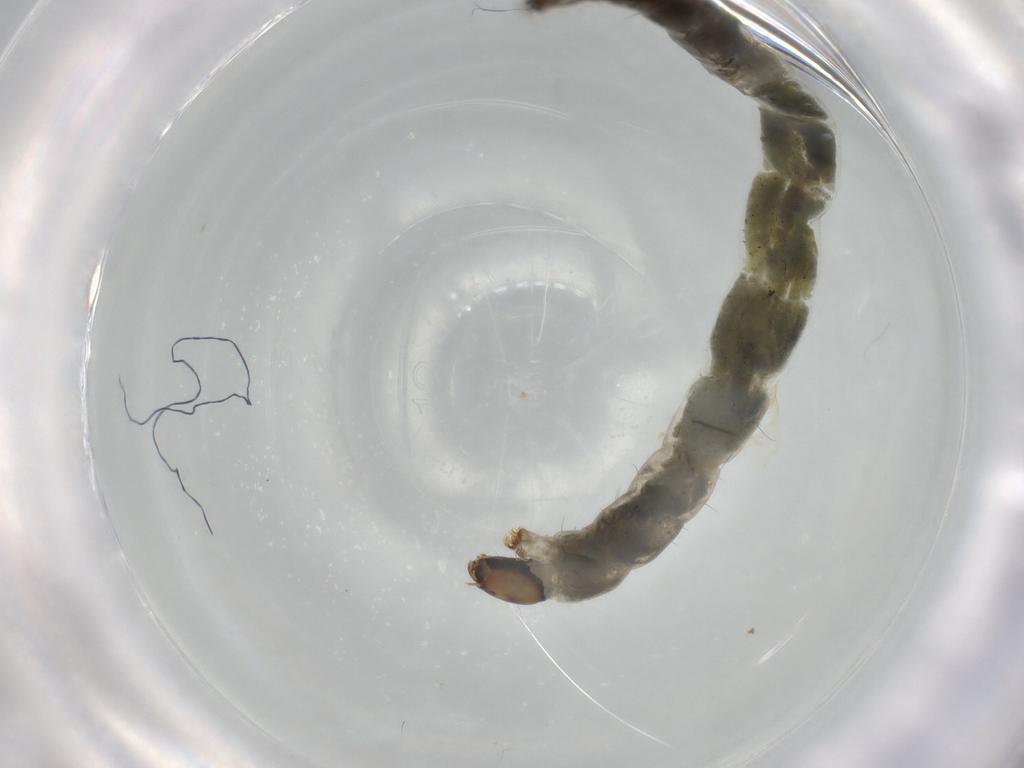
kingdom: Animalia
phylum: Arthropoda
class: Insecta
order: Diptera
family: Chironomidae
